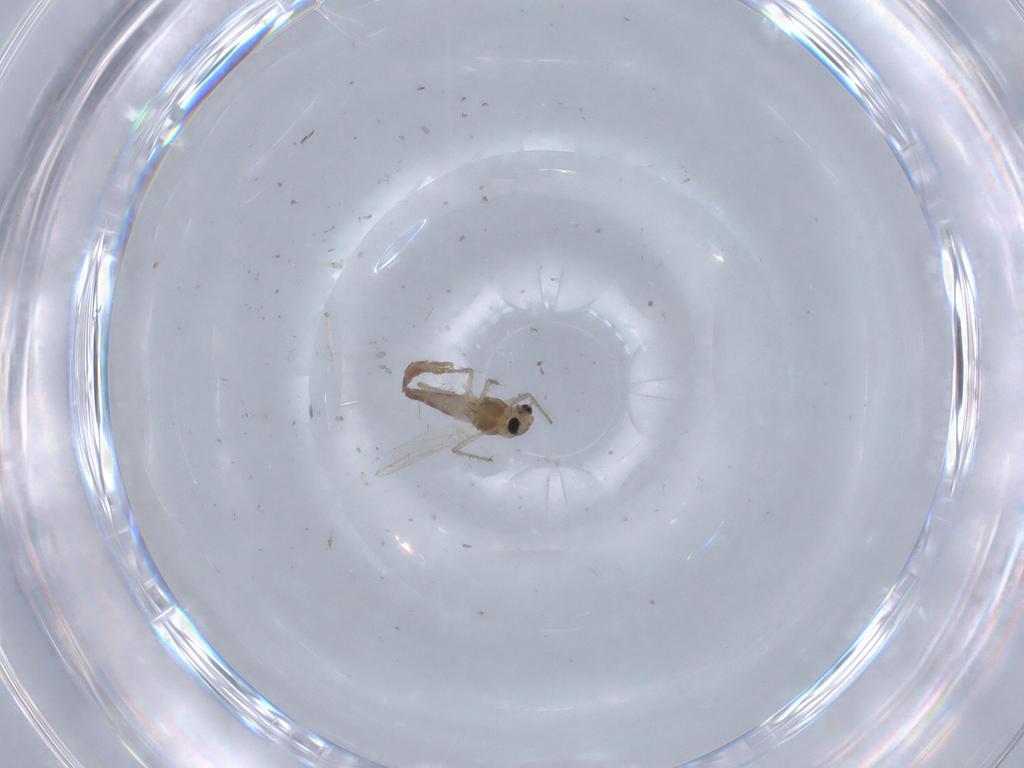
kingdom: Animalia
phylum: Arthropoda
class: Insecta
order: Diptera
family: Chironomidae
